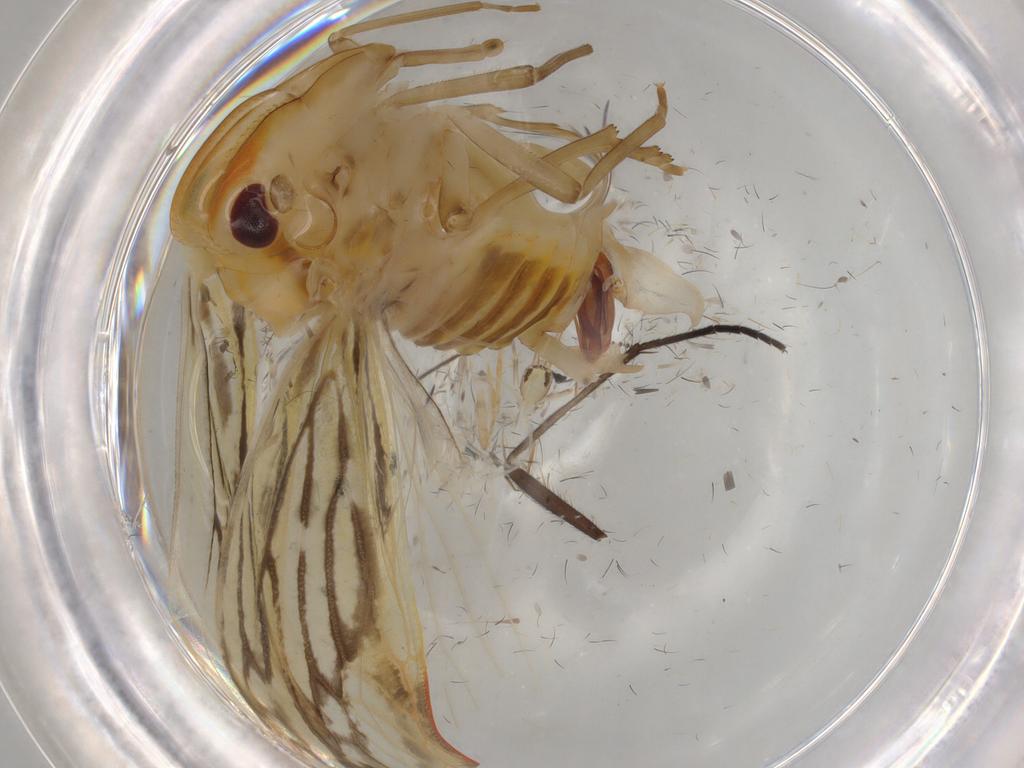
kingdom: Animalia
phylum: Arthropoda
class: Insecta
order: Hemiptera
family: Derbidae
